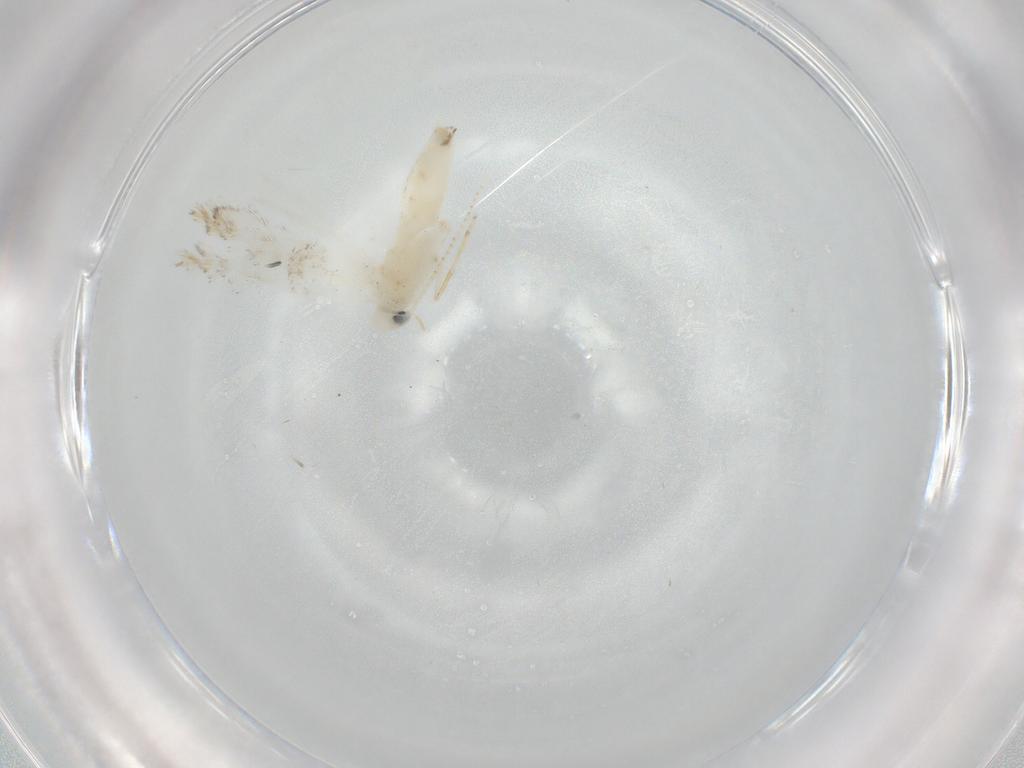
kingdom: Animalia
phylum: Arthropoda
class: Insecta
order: Lepidoptera
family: Gracillariidae
